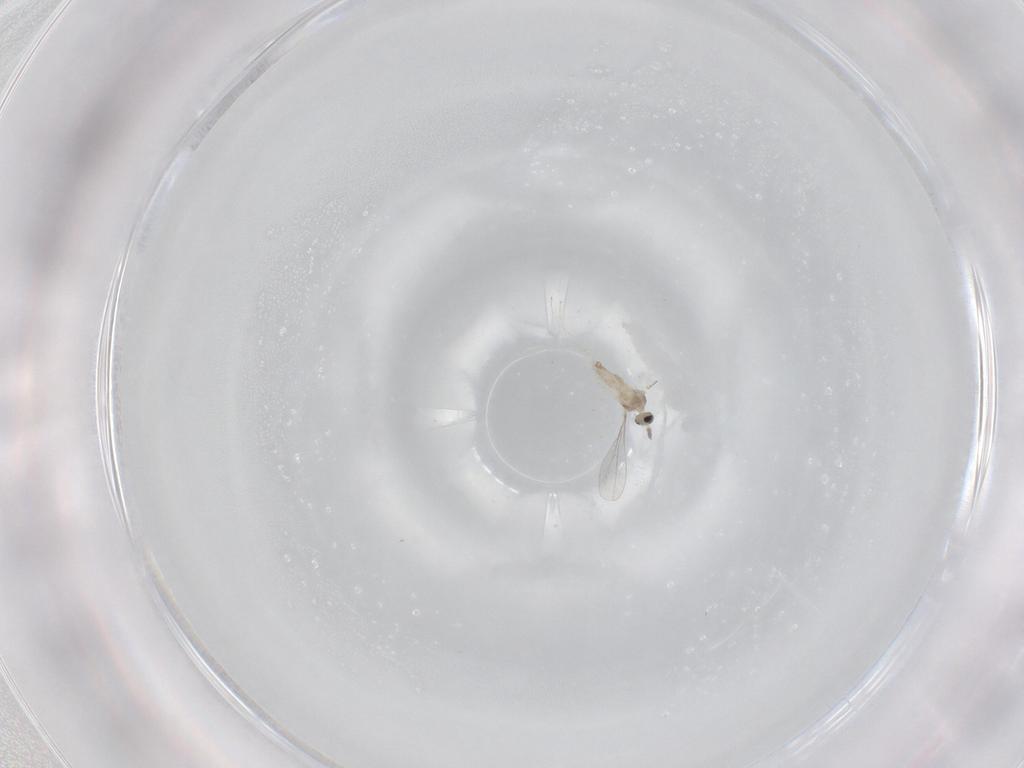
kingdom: Animalia
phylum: Arthropoda
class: Insecta
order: Diptera
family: Cecidomyiidae
